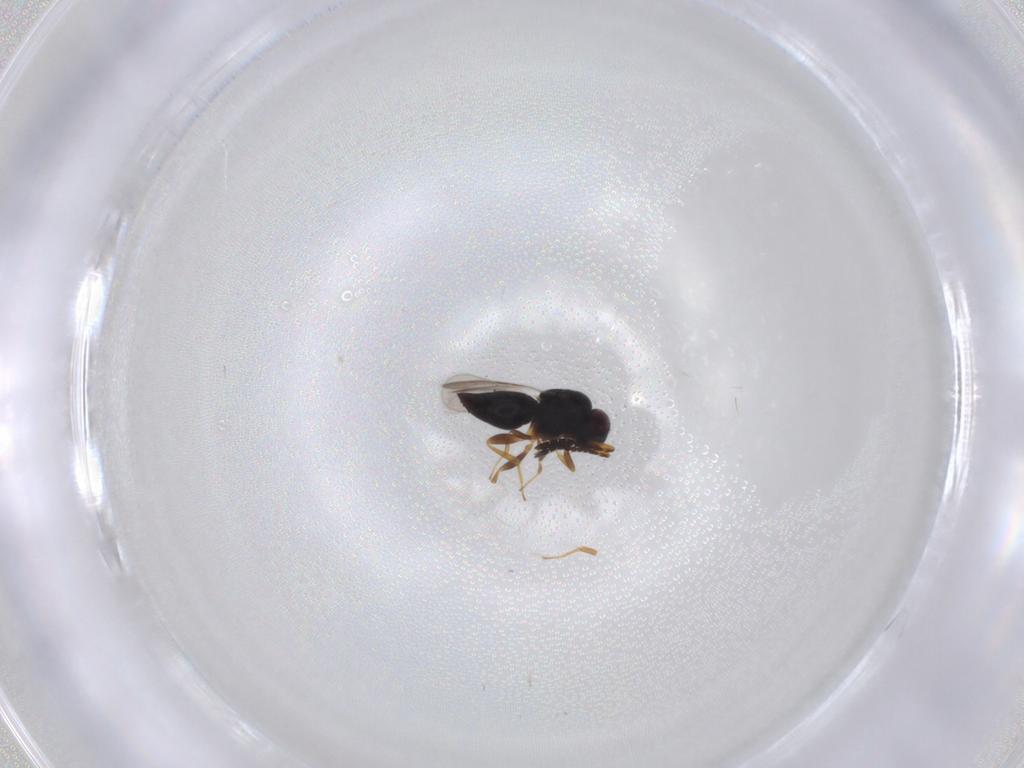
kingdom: Animalia
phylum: Arthropoda
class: Insecta
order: Hymenoptera
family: Ceraphronidae
